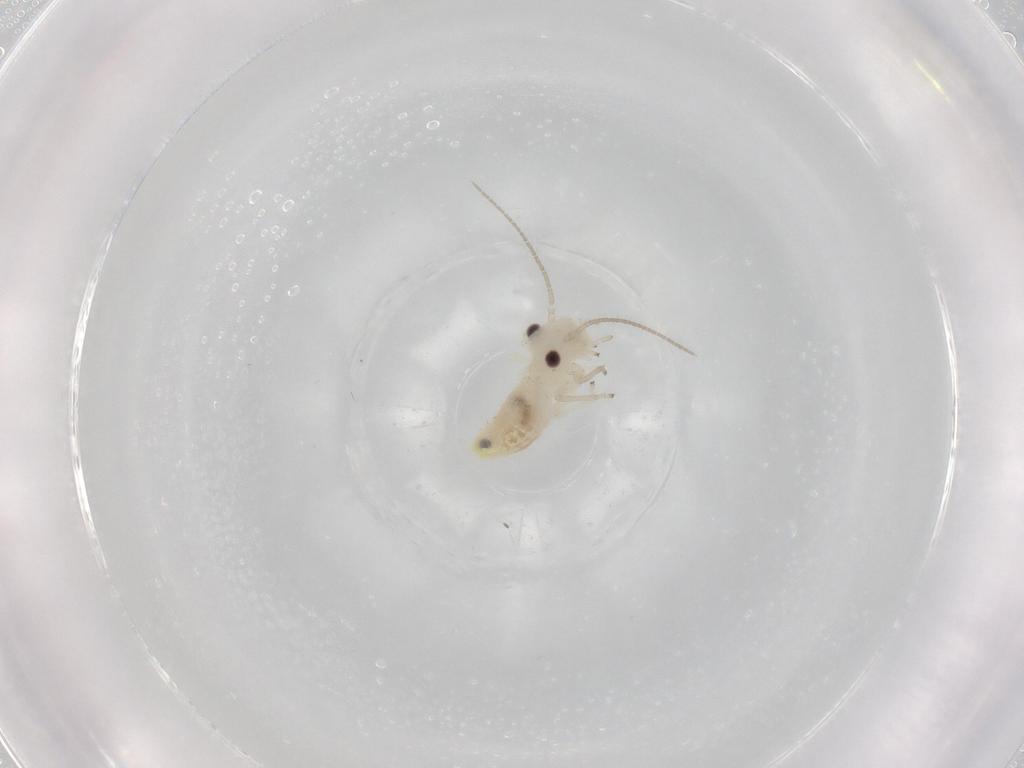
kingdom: Animalia
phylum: Arthropoda
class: Insecta
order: Psocodea
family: Caeciliusidae
